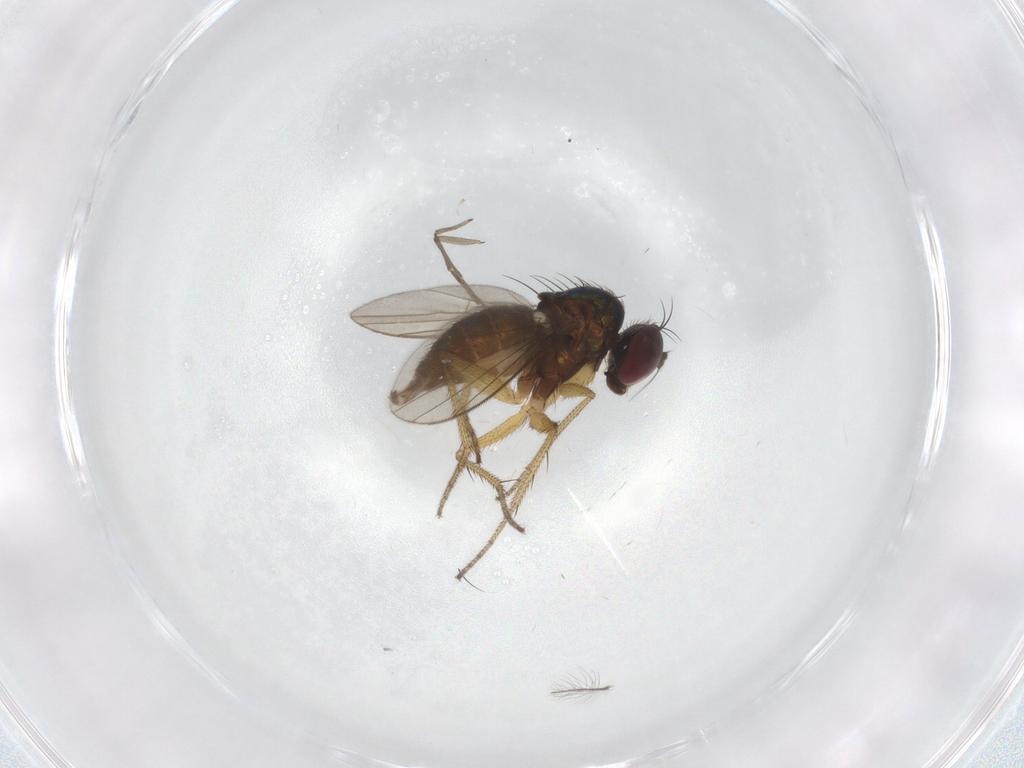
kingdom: Animalia
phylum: Arthropoda
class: Insecta
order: Diptera
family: Dolichopodidae
